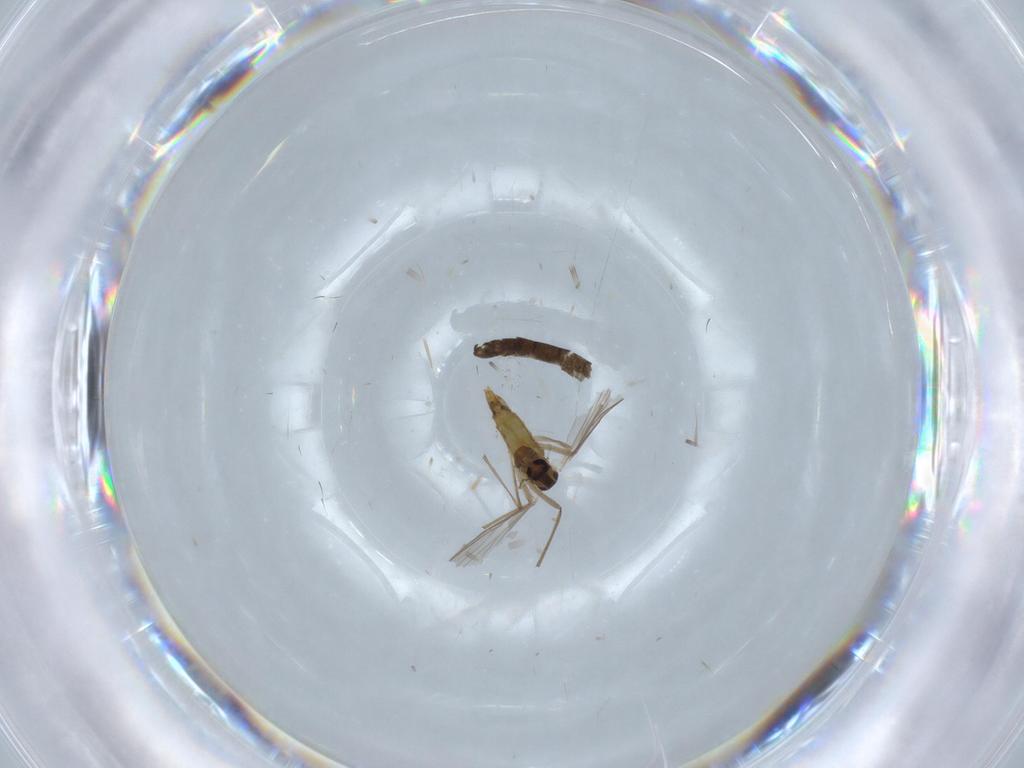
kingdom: Animalia
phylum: Arthropoda
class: Insecta
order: Diptera
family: Chironomidae
